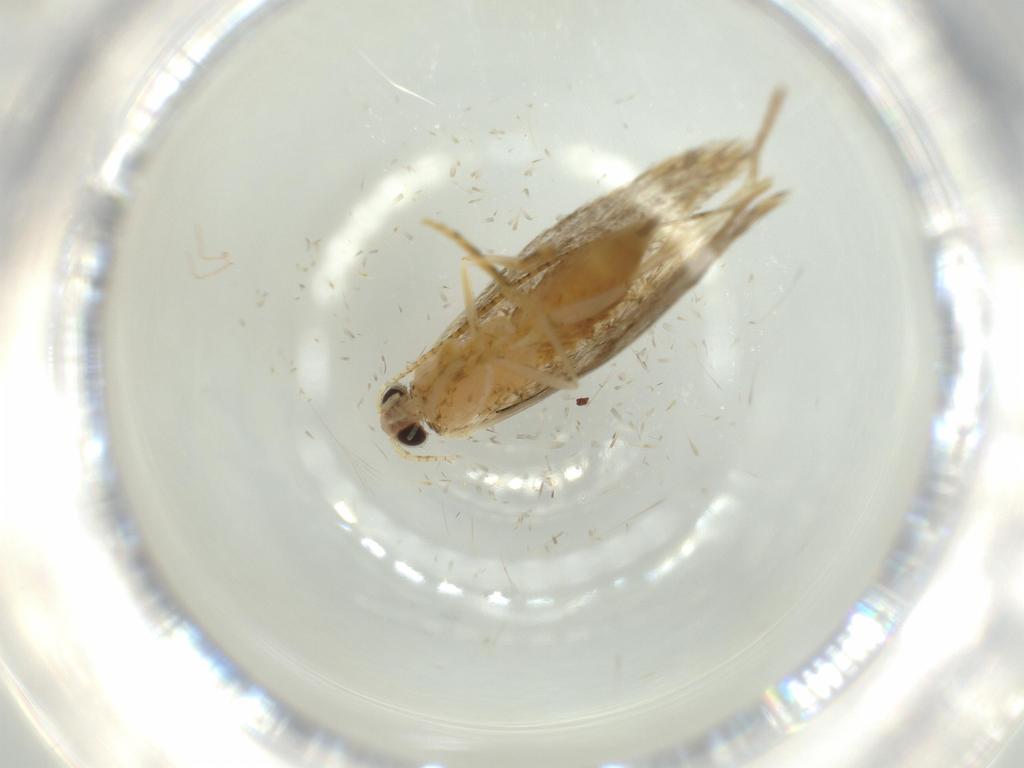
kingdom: Animalia
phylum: Arthropoda
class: Insecta
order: Lepidoptera
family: Tineidae
